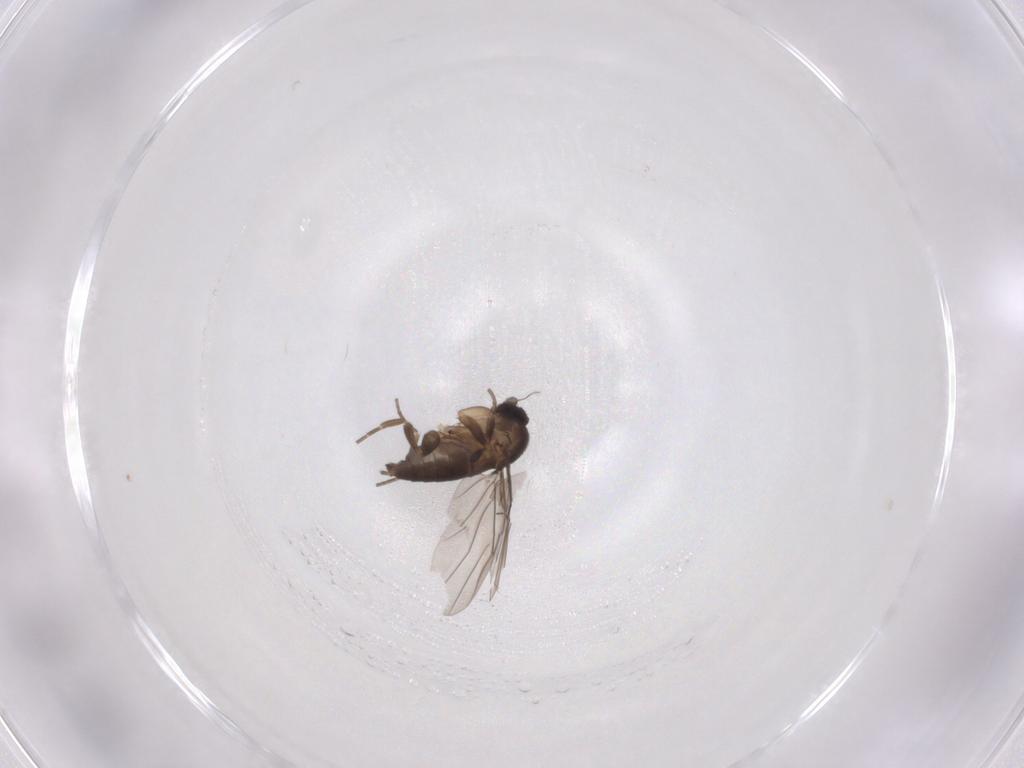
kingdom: Animalia
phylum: Arthropoda
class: Insecta
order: Diptera
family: Phoridae
